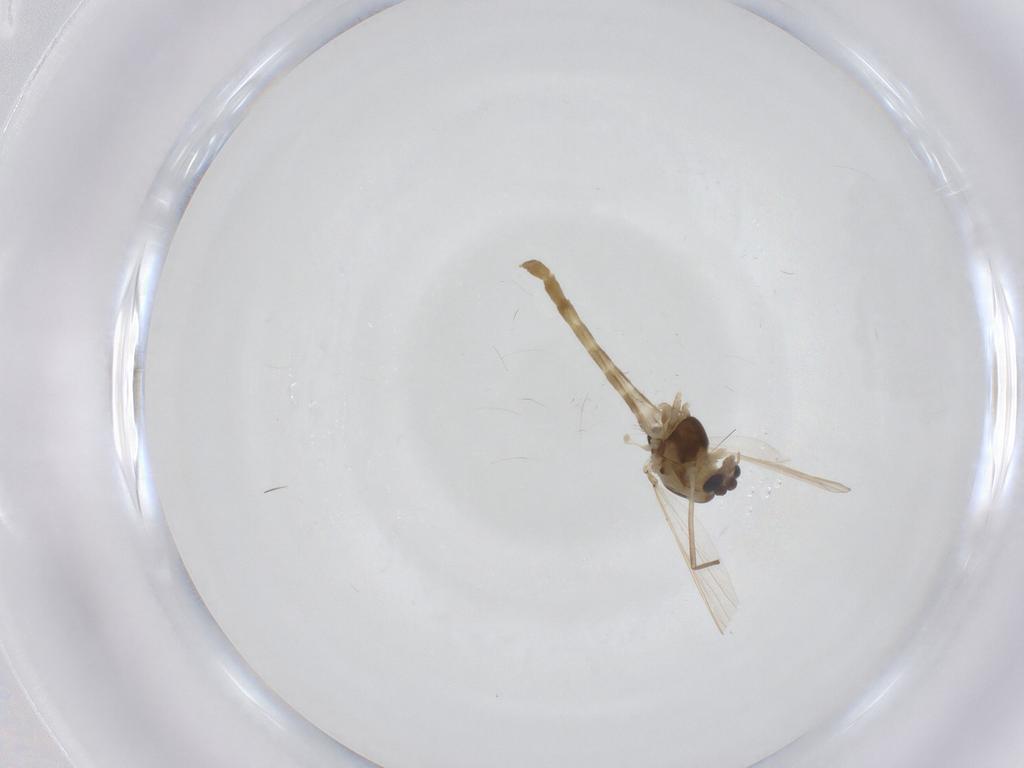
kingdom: Animalia
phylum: Arthropoda
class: Insecta
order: Diptera
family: Chironomidae
